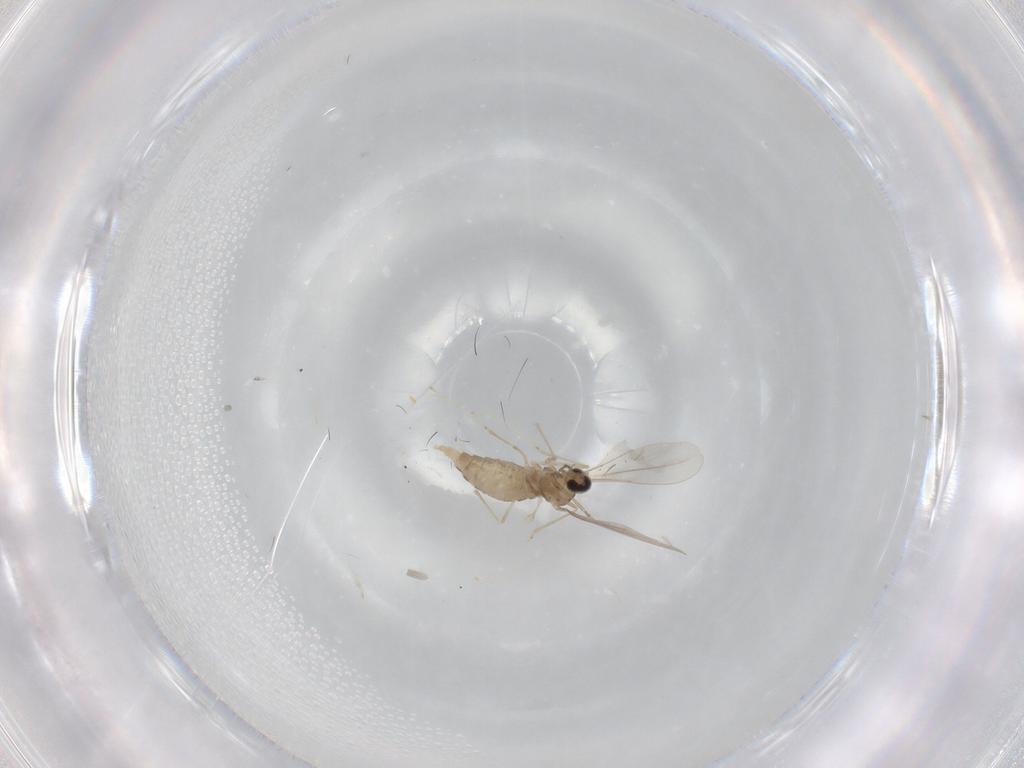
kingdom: Animalia
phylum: Arthropoda
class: Insecta
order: Diptera
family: Cecidomyiidae
